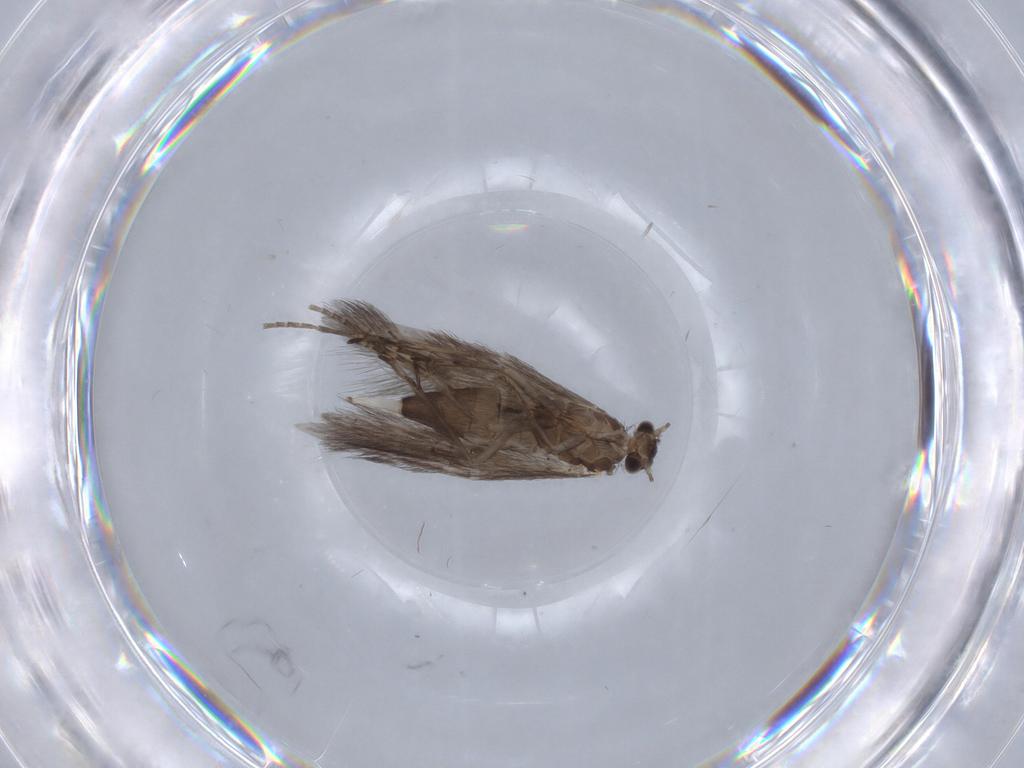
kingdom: Animalia
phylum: Arthropoda
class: Insecta
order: Trichoptera
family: Hydroptilidae
